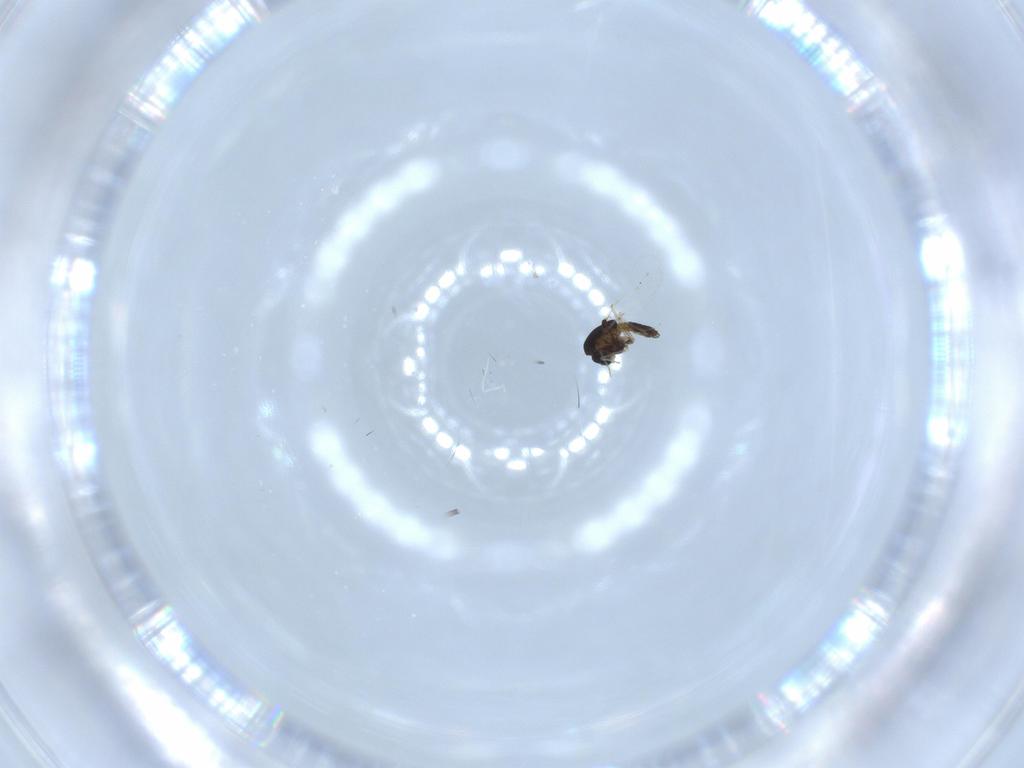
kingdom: Animalia
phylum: Arthropoda
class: Insecta
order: Diptera
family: Chironomidae
